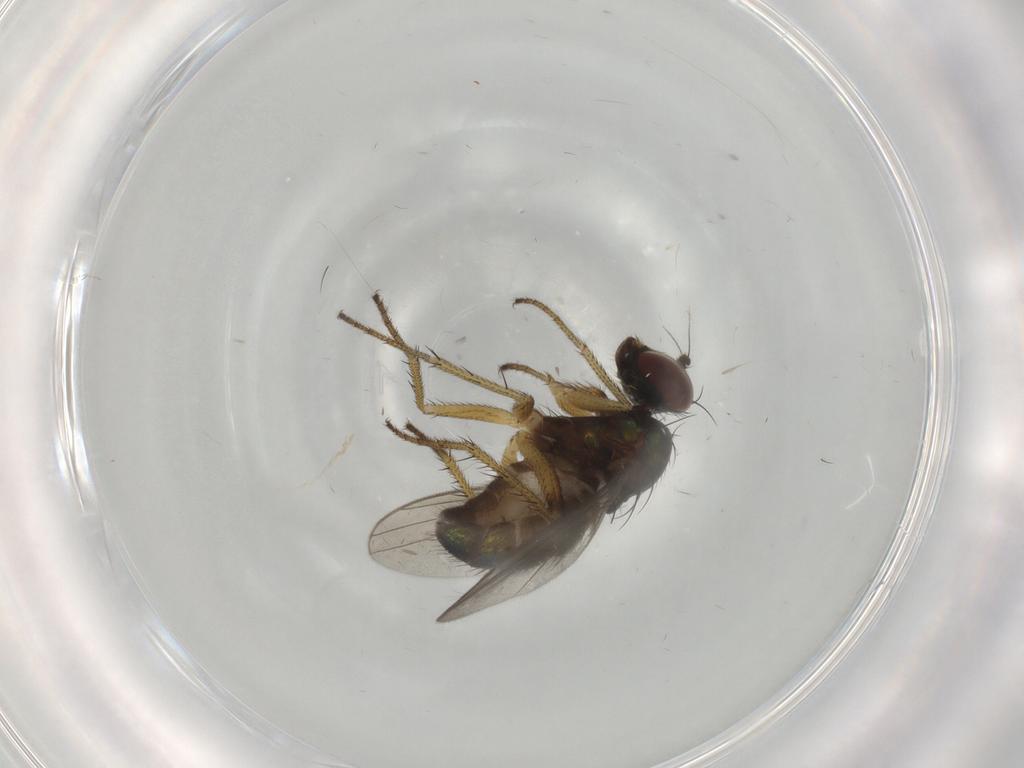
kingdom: Animalia
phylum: Arthropoda
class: Insecta
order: Diptera
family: Dolichopodidae
